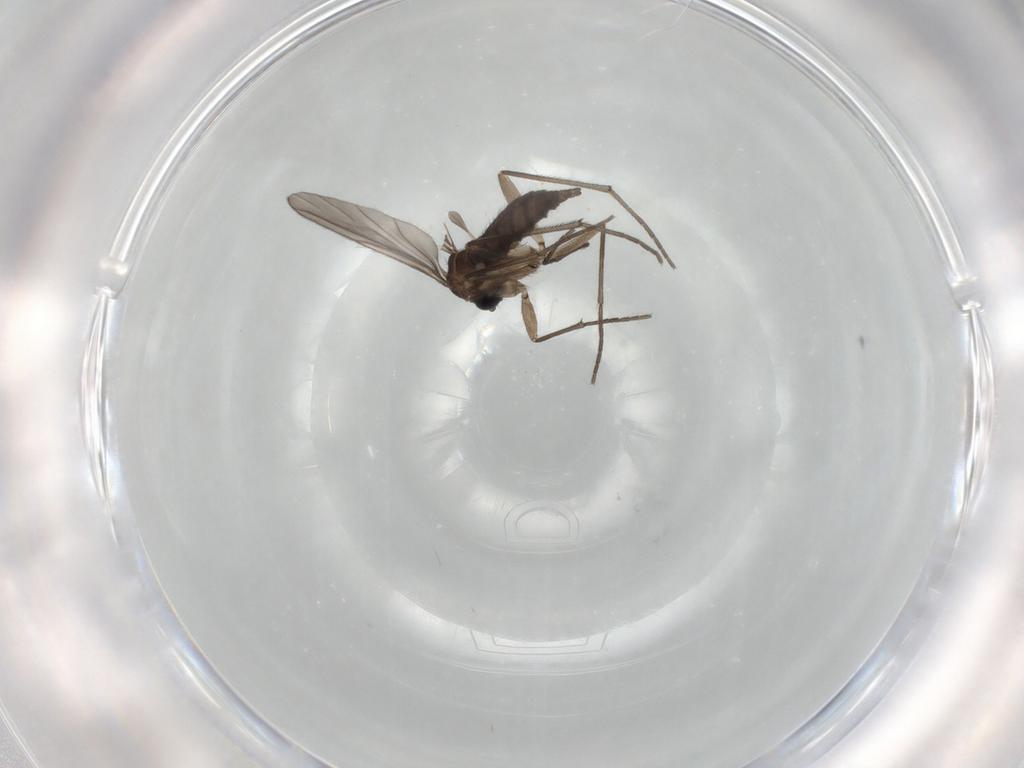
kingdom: Animalia
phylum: Arthropoda
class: Insecta
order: Diptera
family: Sciaridae
